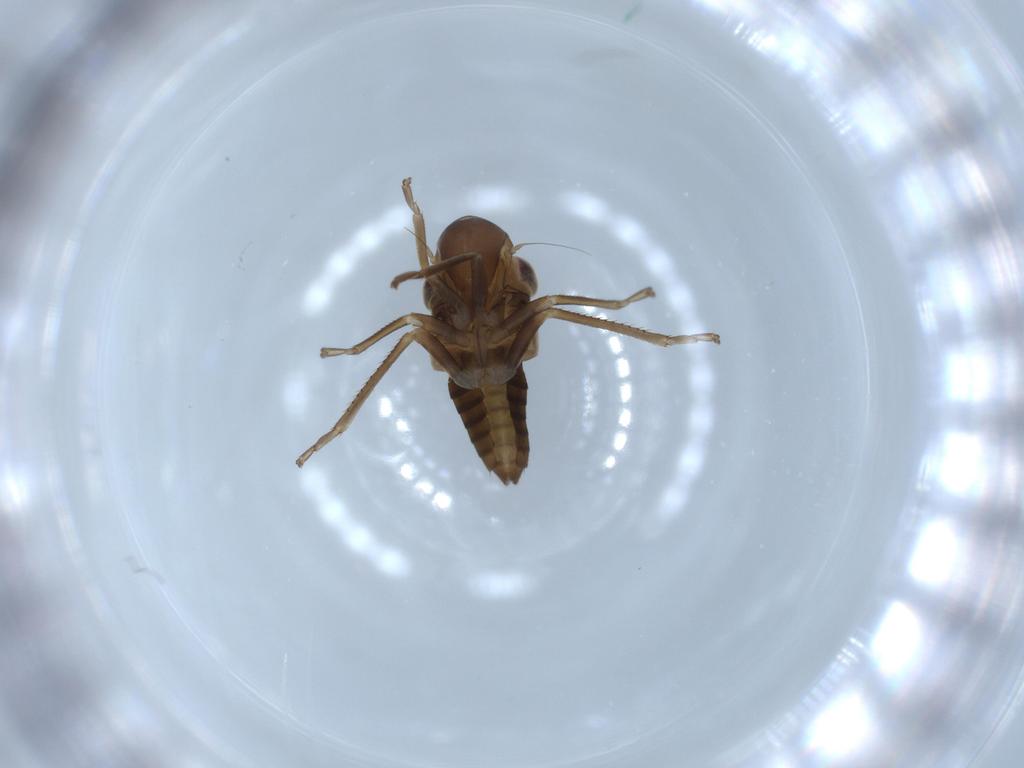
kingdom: Animalia
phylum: Arthropoda
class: Insecta
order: Hemiptera
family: Cicadellidae
